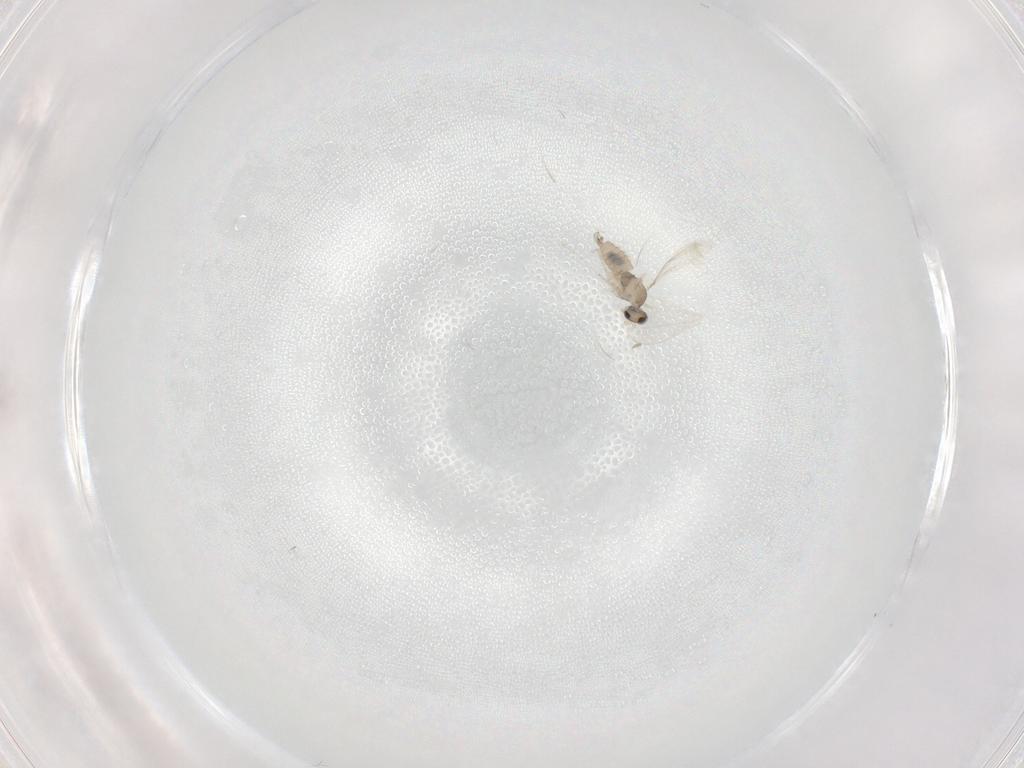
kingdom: Animalia
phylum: Arthropoda
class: Insecta
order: Diptera
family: Cecidomyiidae
